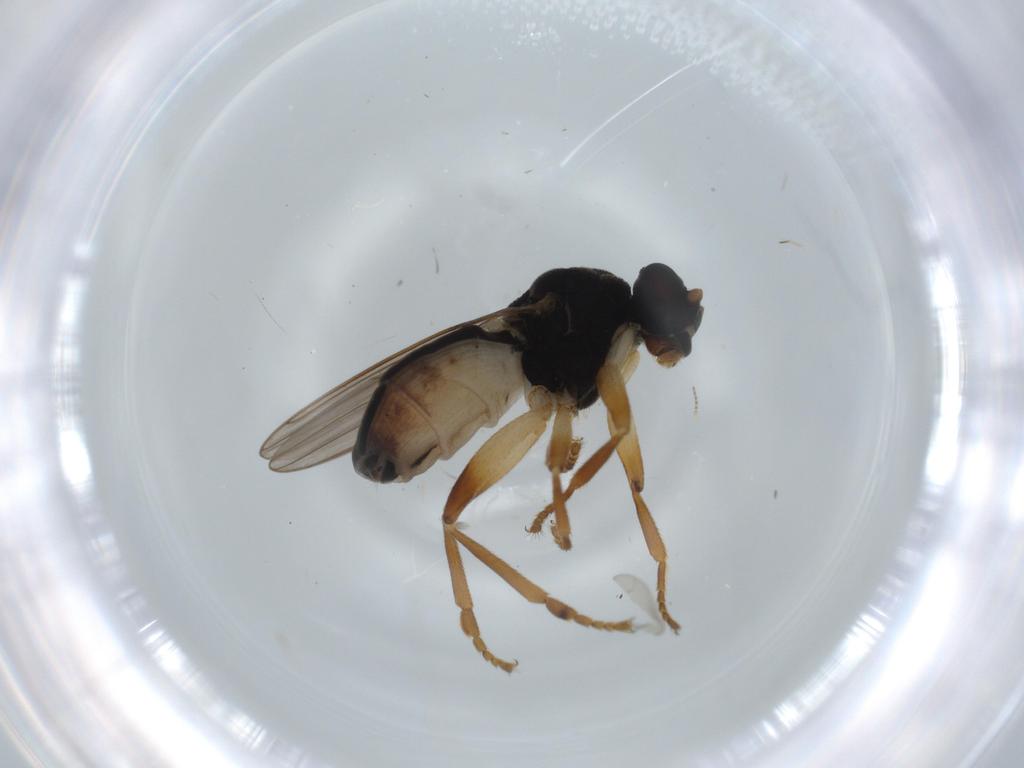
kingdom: Animalia
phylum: Arthropoda
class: Insecta
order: Diptera
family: Sphaeroceridae
